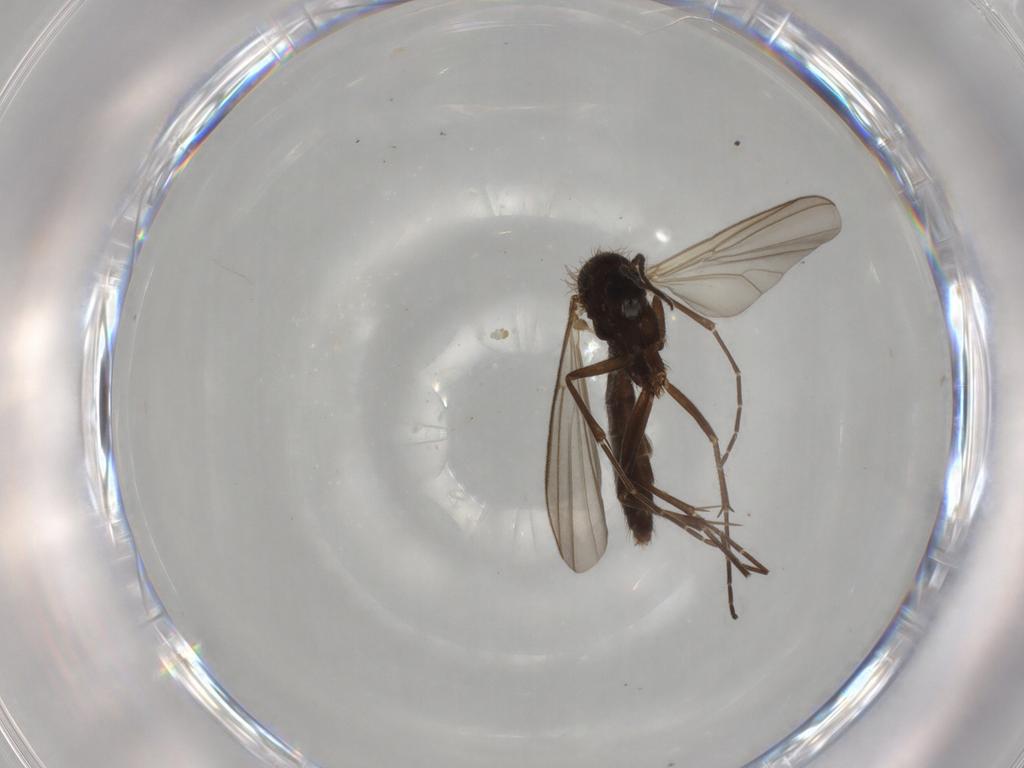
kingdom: Animalia
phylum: Arthropoda
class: Insecta
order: Diptera
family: Mycetophilidae
